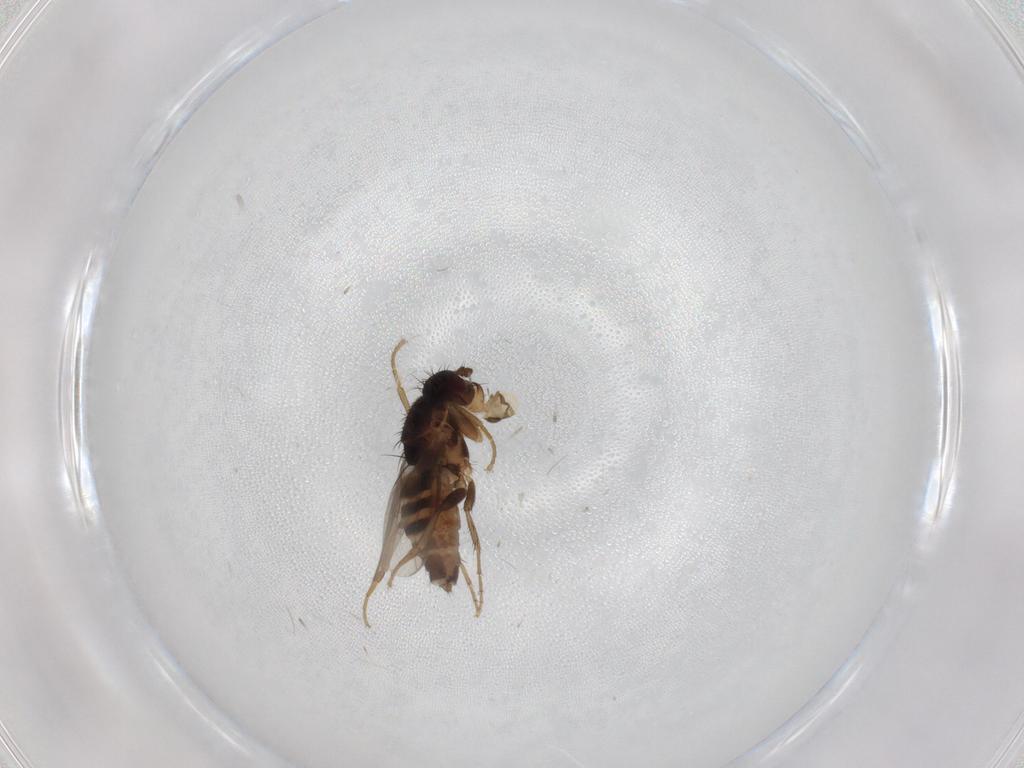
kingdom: Animalia
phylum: Arthropoda
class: Insecta
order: Diptera
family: Sphaeroceridae
